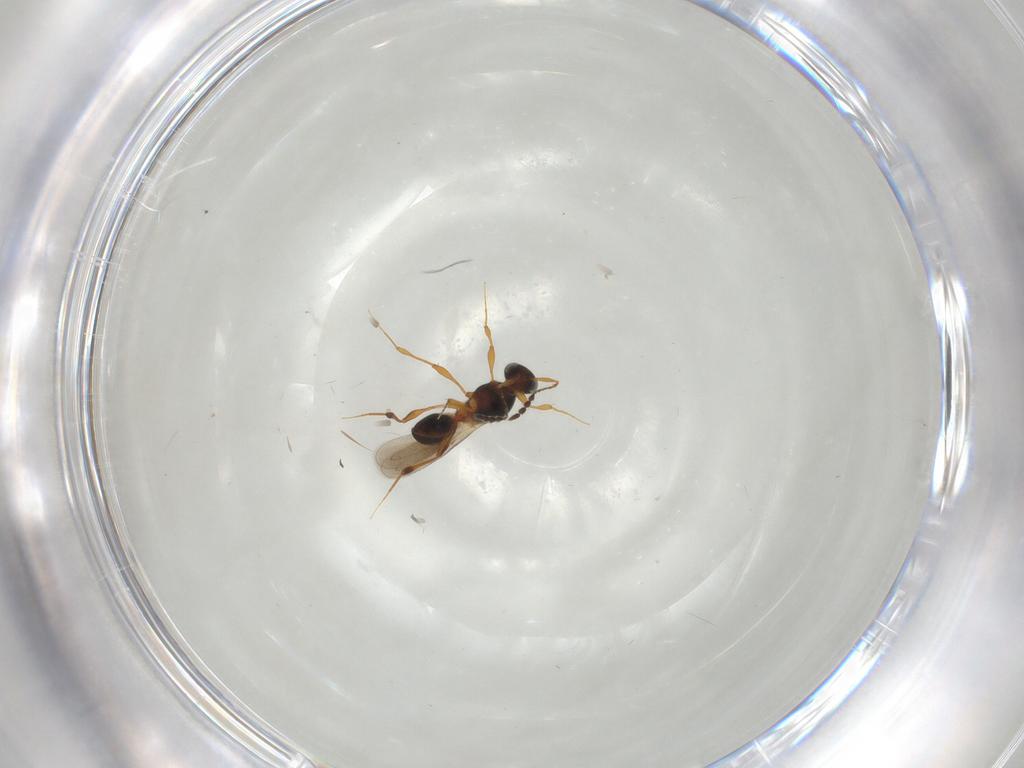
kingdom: Animalia
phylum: Arthropoda
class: Insecta
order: Hymenoptera
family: Platygastridae
